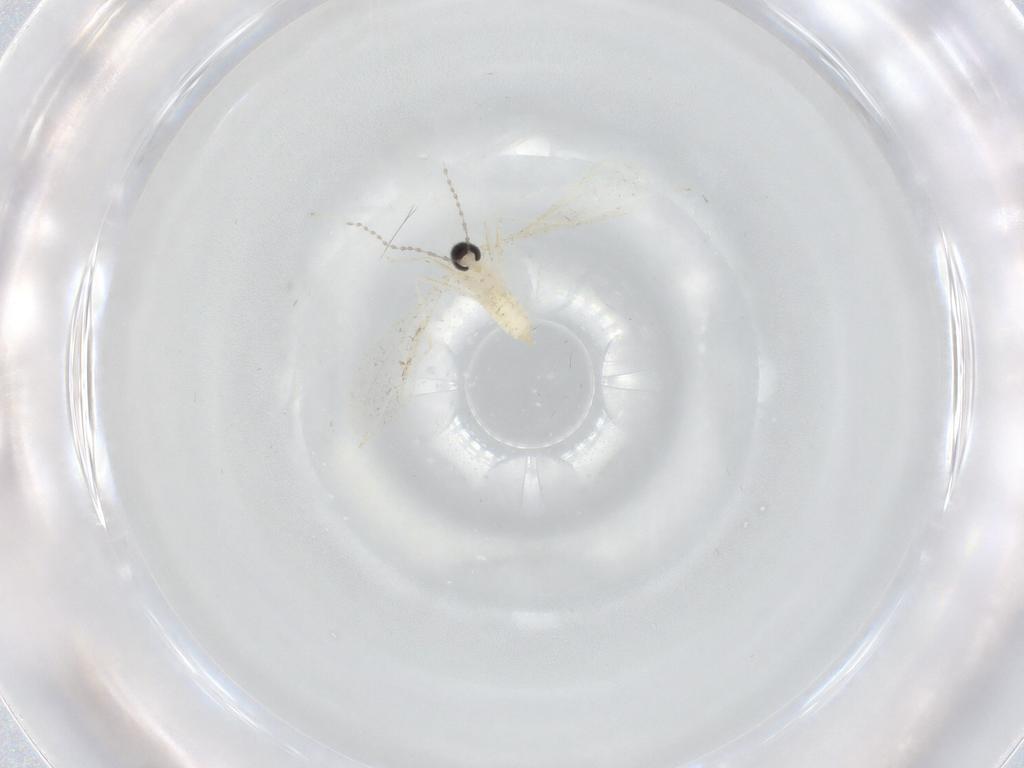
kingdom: Animalia
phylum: Arthropoda
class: Insecta
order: Diptera
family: Cecidomyiidae
